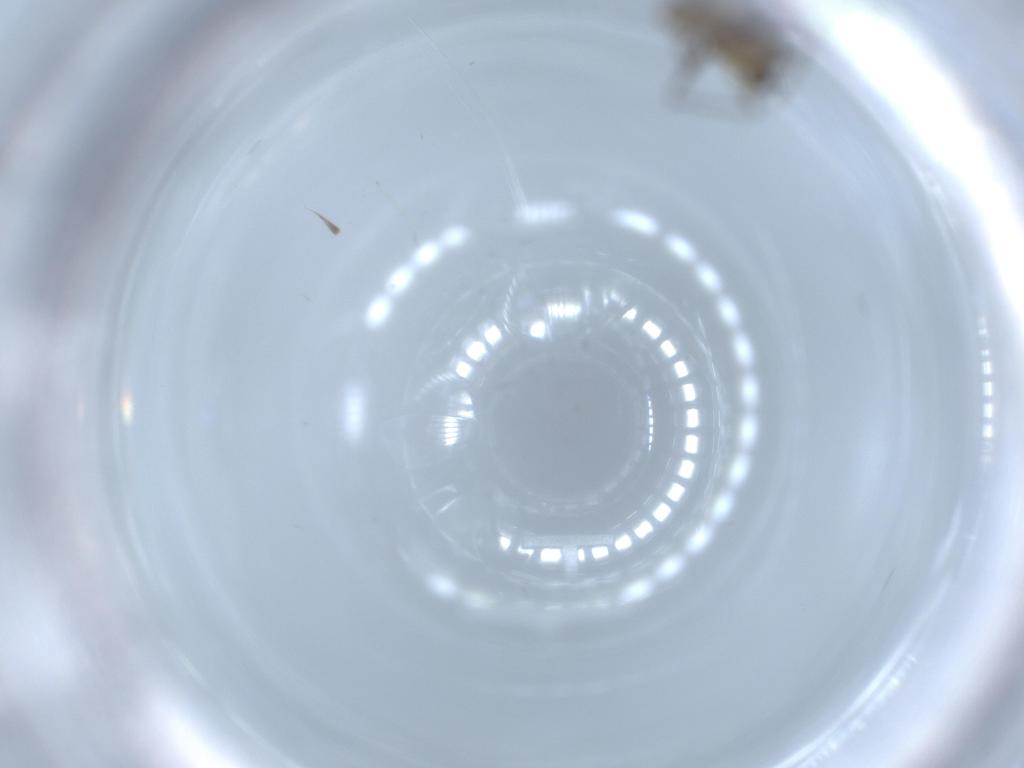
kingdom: Animalia
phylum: Arthropoda
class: Insecta
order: Diptera
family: Chironomidae
